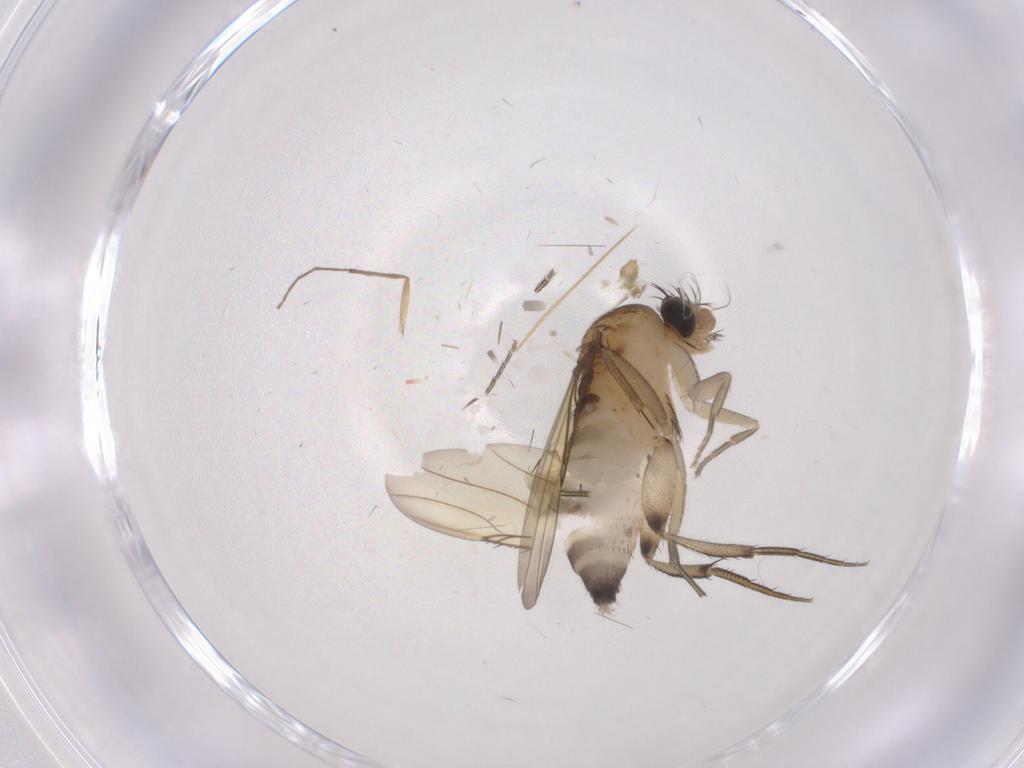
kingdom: Animalia
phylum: Arthropoda
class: Insecta
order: Diptera
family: Phoridae
